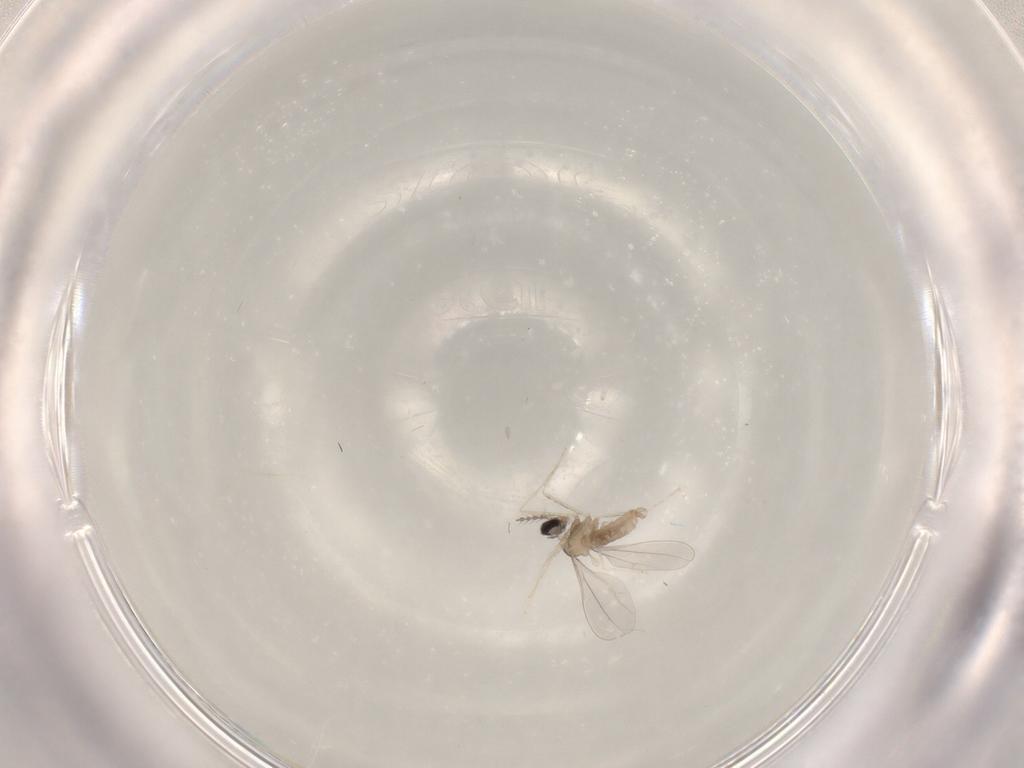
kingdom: Animalia
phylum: Arthropoda
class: Insecta
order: Diptera
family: Cecidomyiidae
